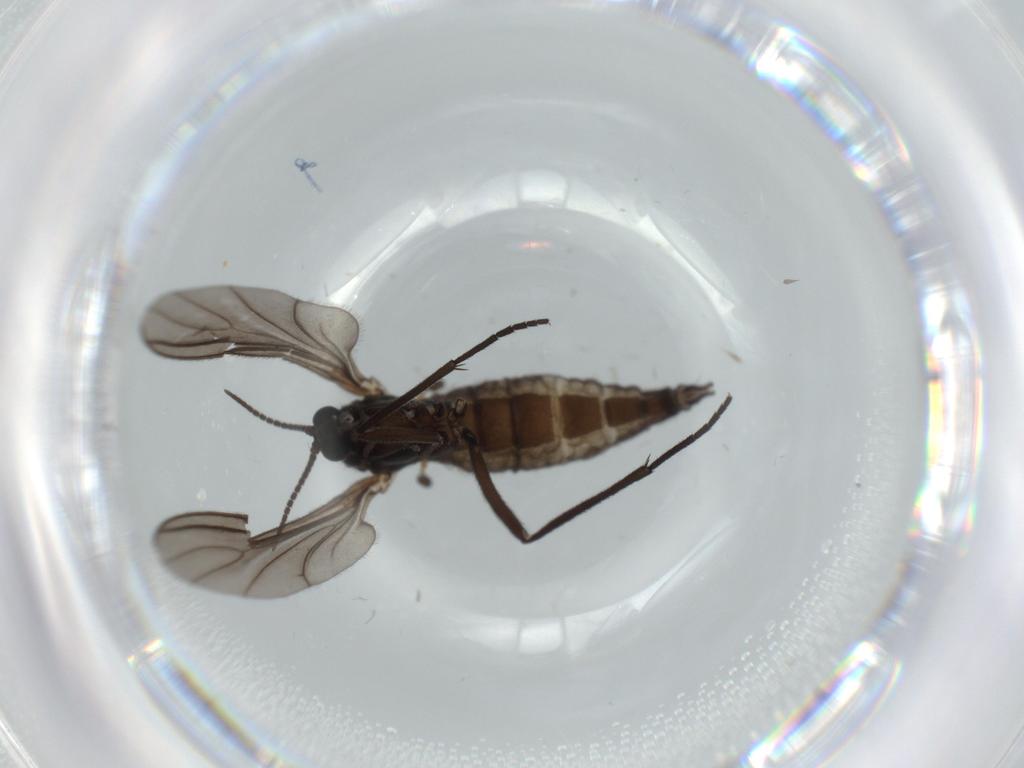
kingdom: Animalia
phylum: Arthropoda
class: Insecta
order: Diptera
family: Sciaridae
